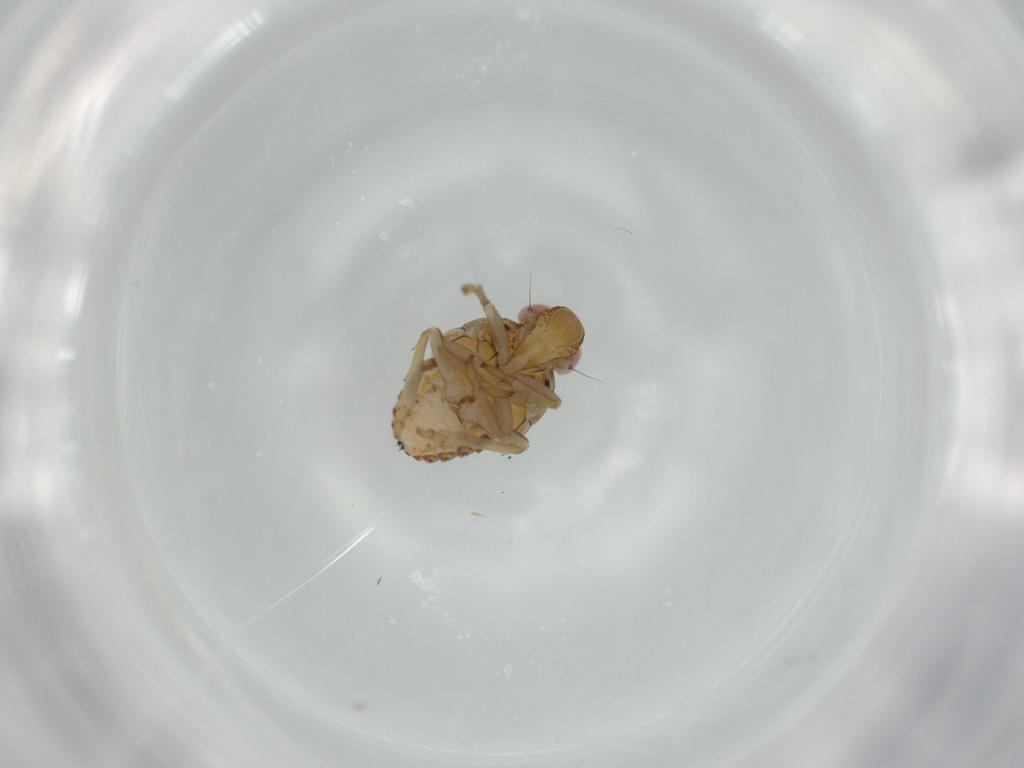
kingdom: Animalia
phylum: Arthropoda
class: Insecta
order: Hemiptera
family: Issidae
